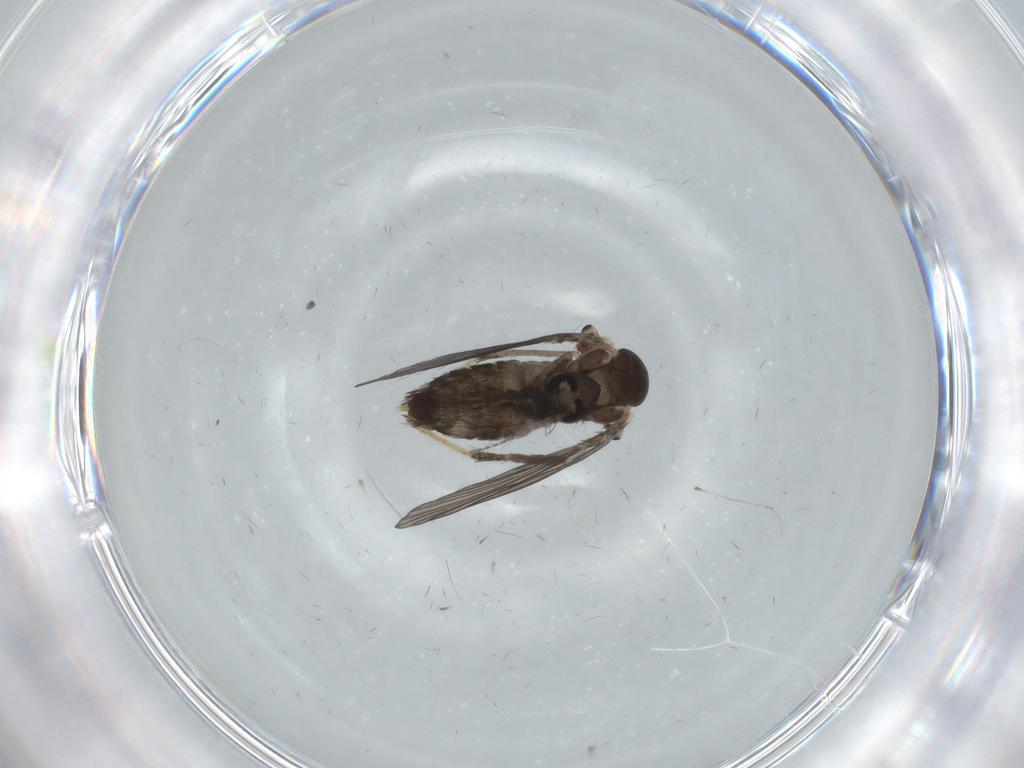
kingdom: Animalia
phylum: Arthropoda
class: Insecta
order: Diptera
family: Psychodidae
